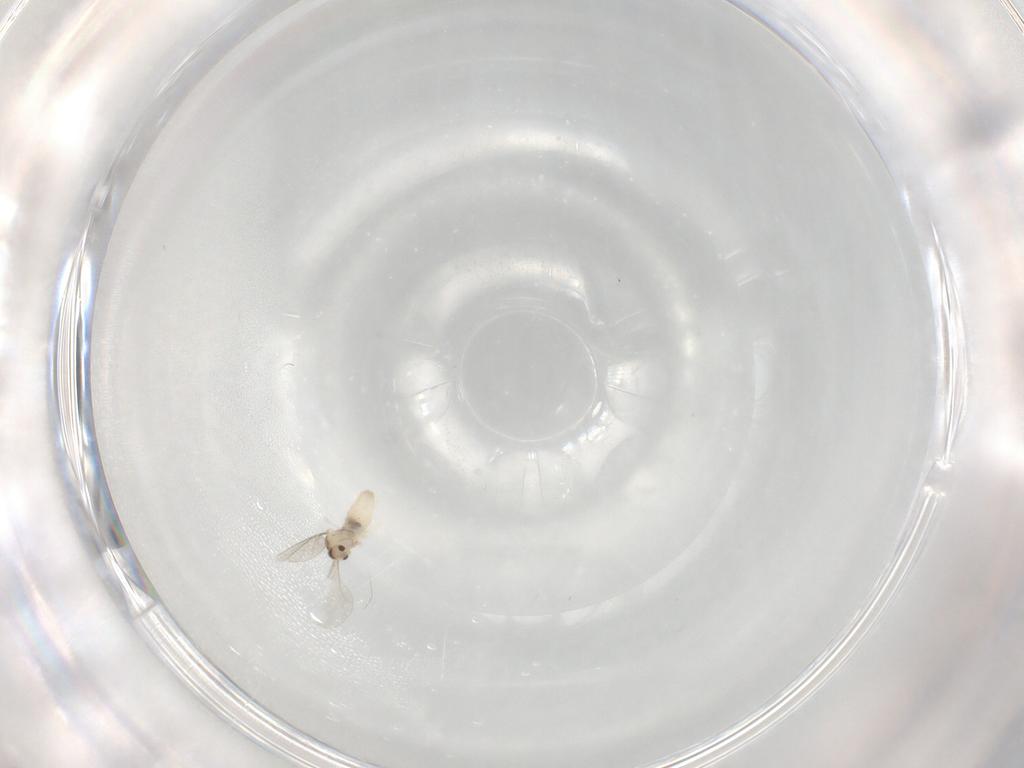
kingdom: Animalia
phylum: Arthropoda
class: Insecta
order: Diptera
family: Cecidomyiidae
